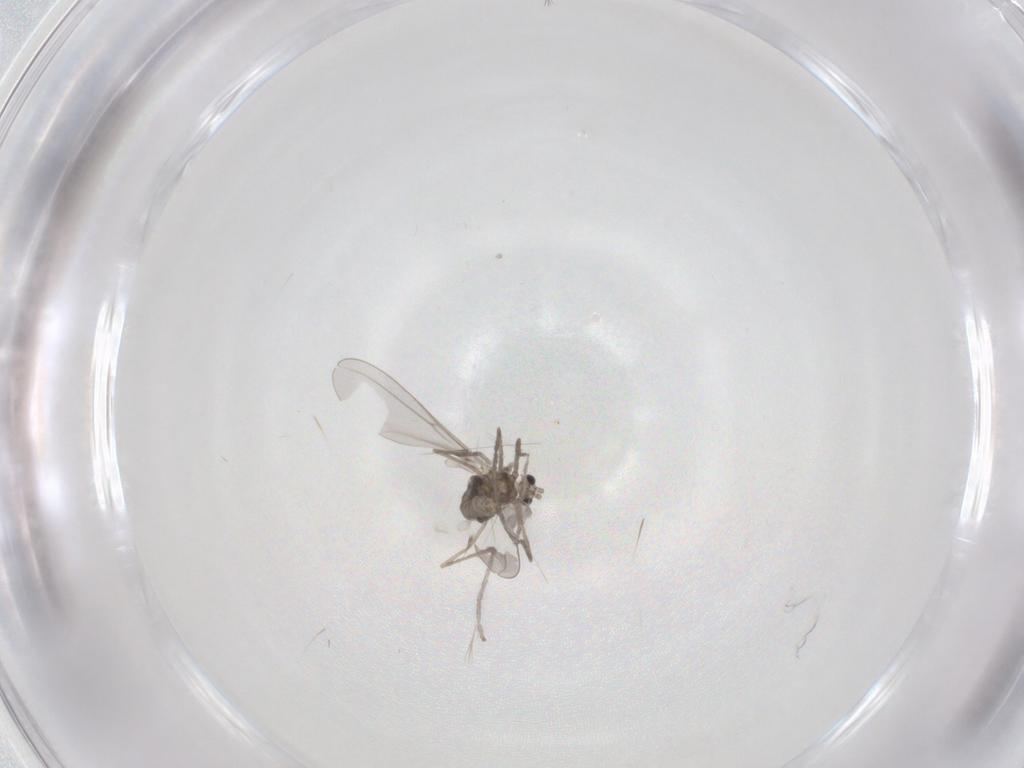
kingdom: Animalia
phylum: Arthropoda
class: Insecta
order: Diptera
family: Cecidomyiidae
